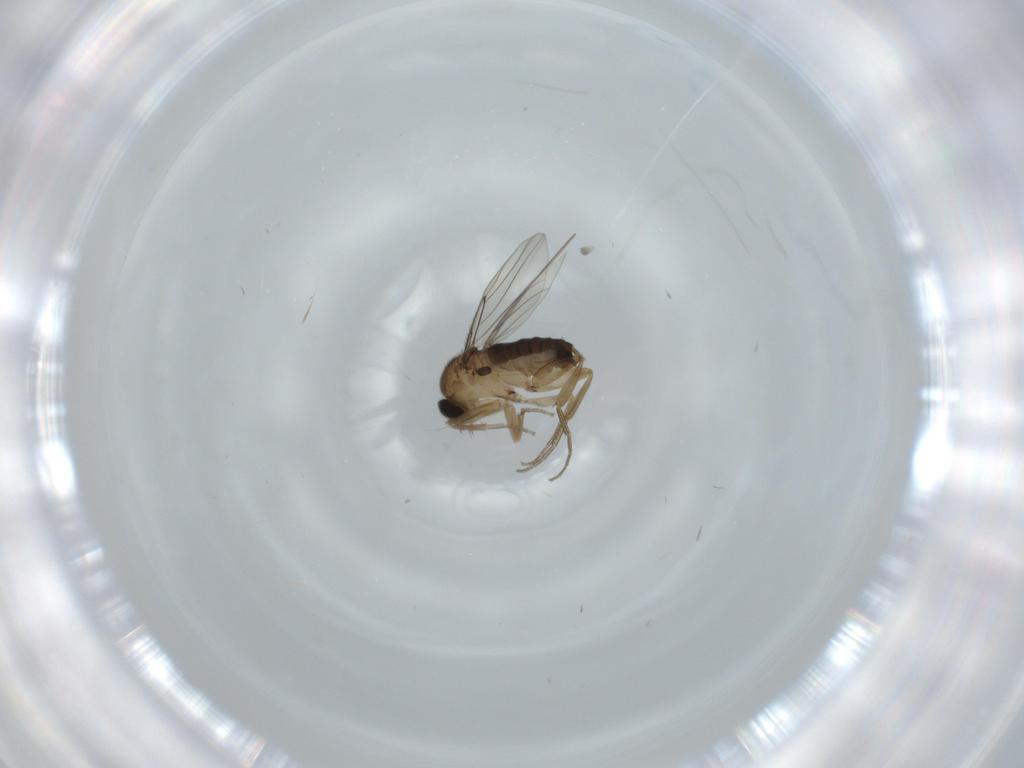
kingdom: Animalia
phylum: Arthropoda
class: Insecta
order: Diptera
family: Phoridae
